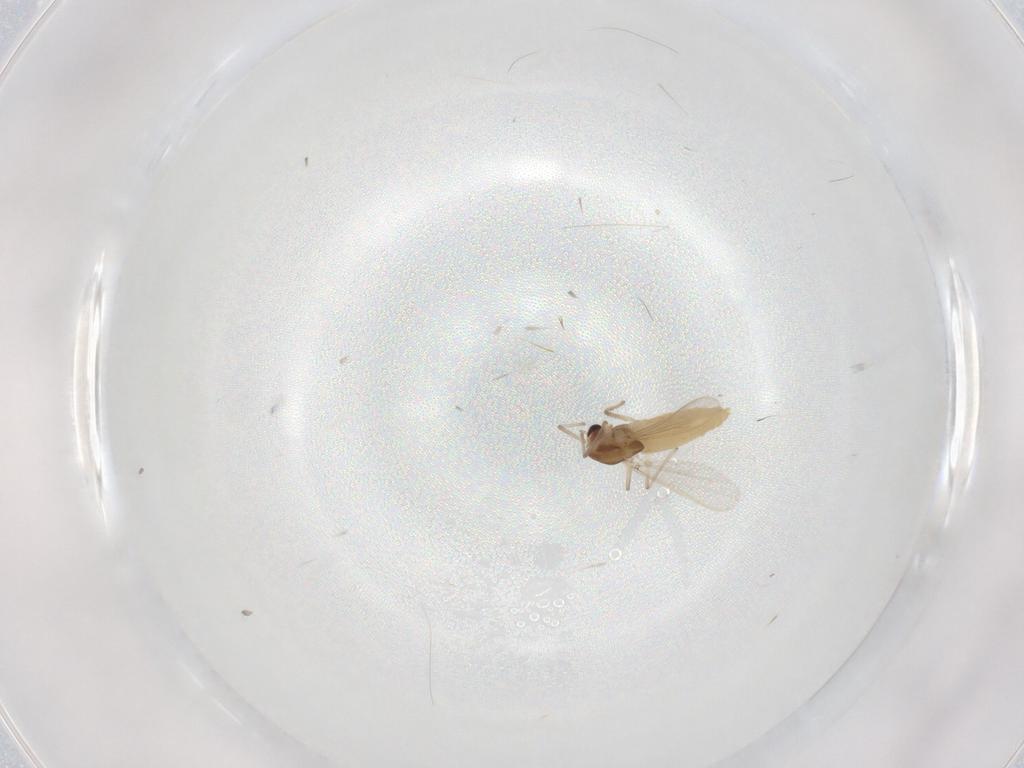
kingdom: Animalia
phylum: Arthropoda
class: Insecta
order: Diptera
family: Chironomidae
